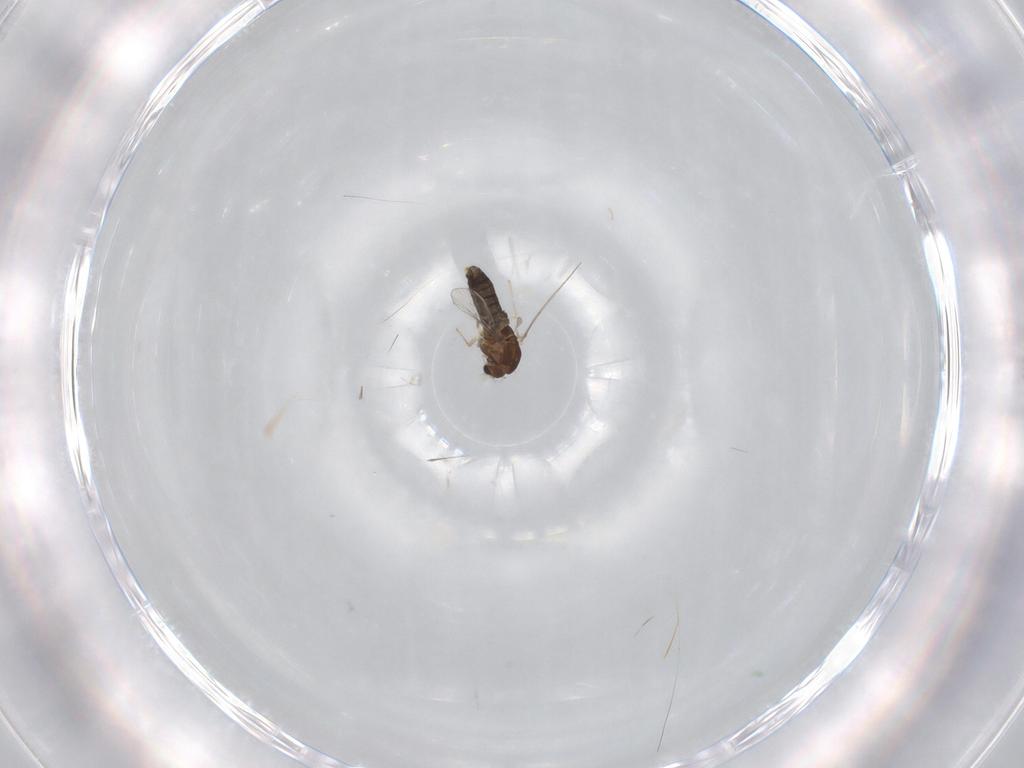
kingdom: Animalia
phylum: Arthropoda
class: Insecta
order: Diptera
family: Chironomidae
